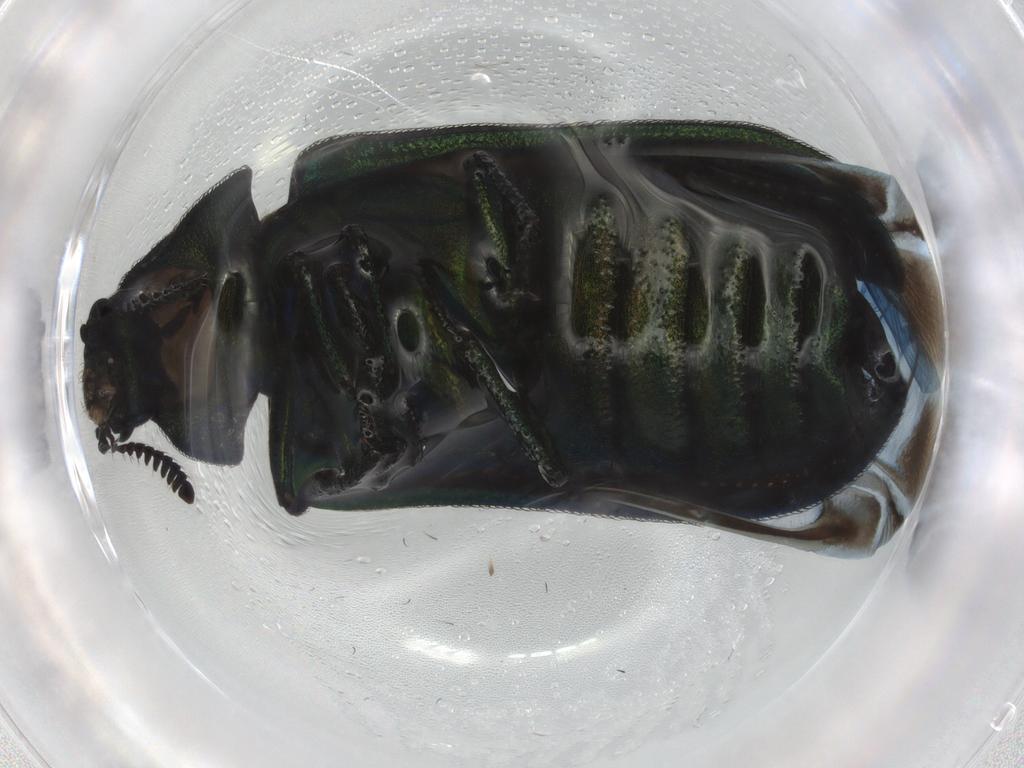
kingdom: Animalia
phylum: Arthropoda
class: Insecta
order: Coleoptera
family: Melyridae
